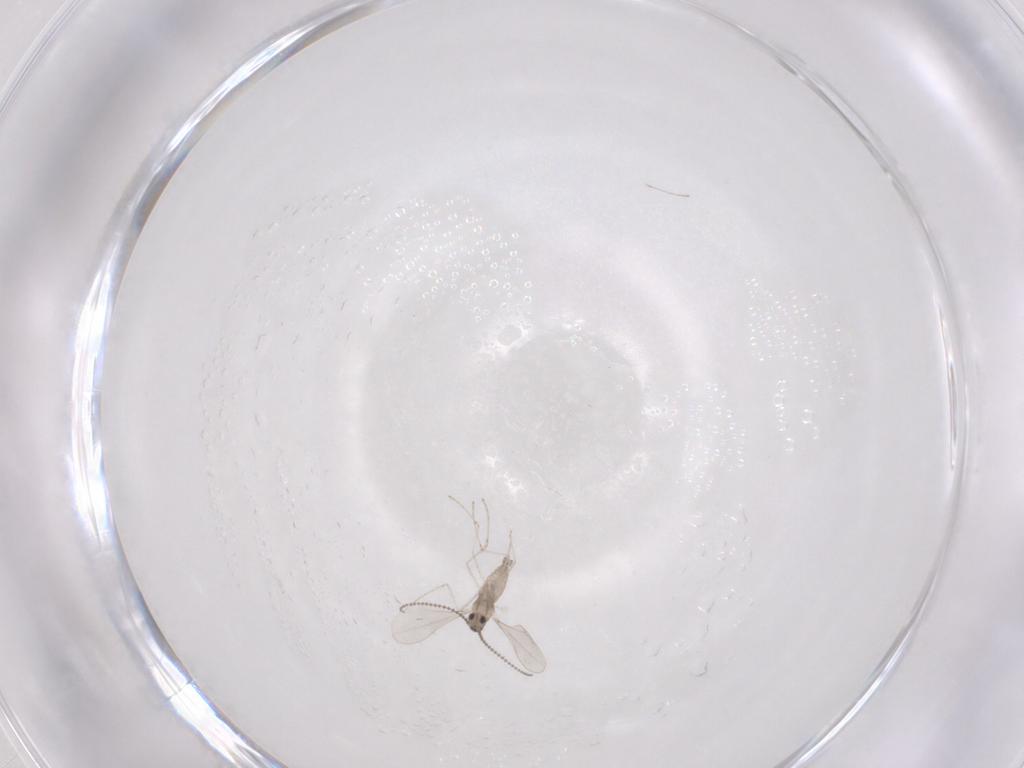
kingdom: Animalia
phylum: Arthropoda
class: Insecta
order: Diptera
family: Cecidomyiidae
